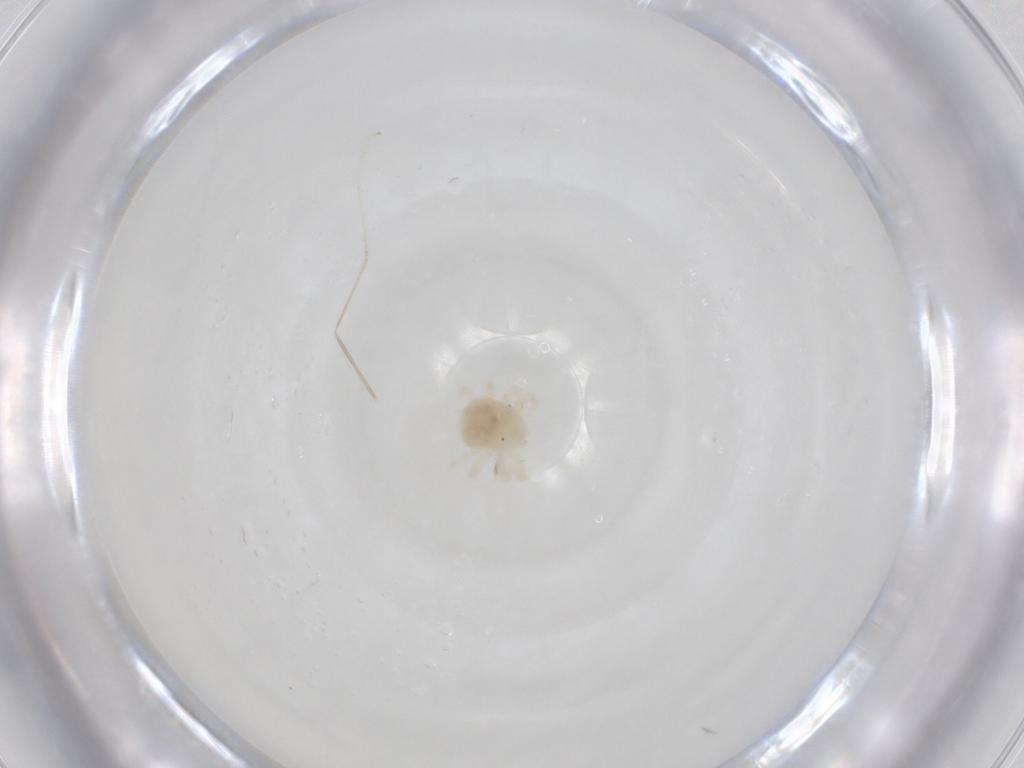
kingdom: Animalia
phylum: Arthropoda
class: Arachnida
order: Trombidiformes
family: Anystidae
